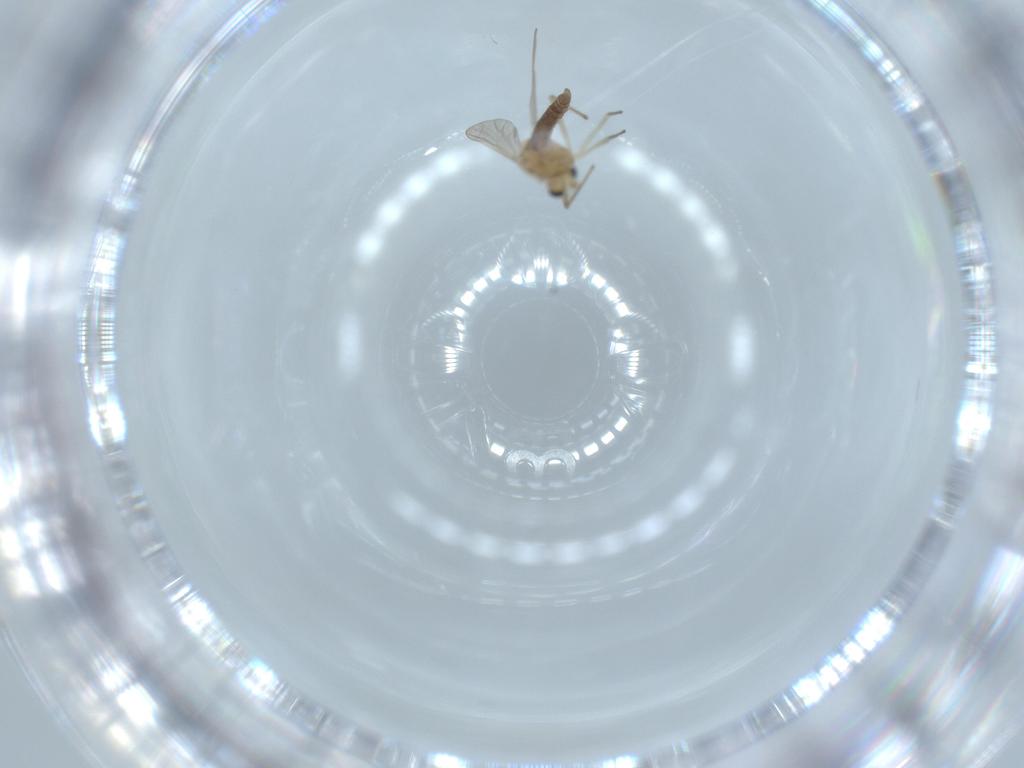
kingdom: Animalia
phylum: Arthropoda
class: Insecta
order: Diptera
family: Chironomidae
